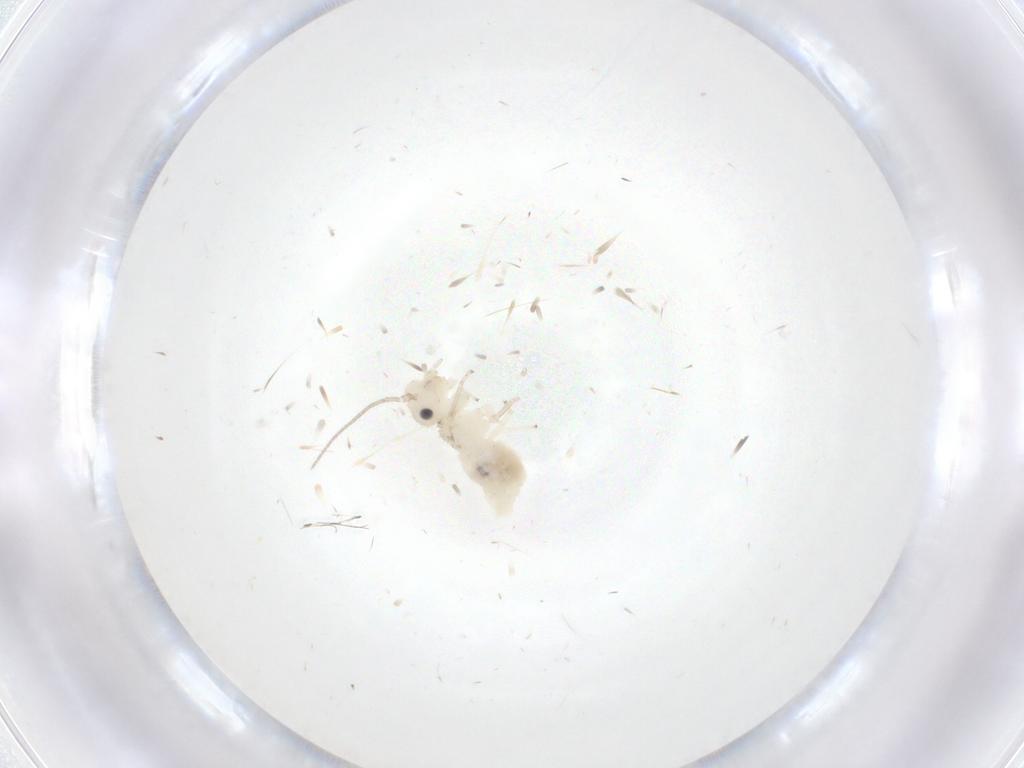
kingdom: Animalia
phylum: Arthropoda
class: Insecta
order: Psocodea
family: Caeciliusidae
